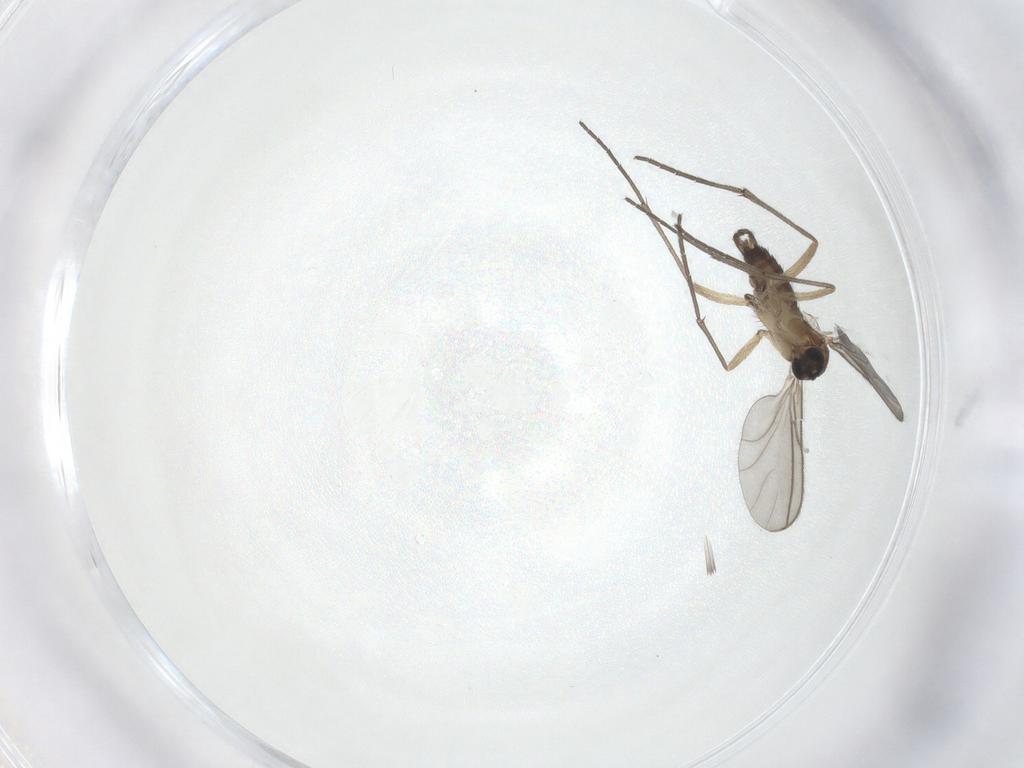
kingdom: Animalia
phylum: Arthropoda
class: Insecta
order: Diptera
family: Sciaridae
